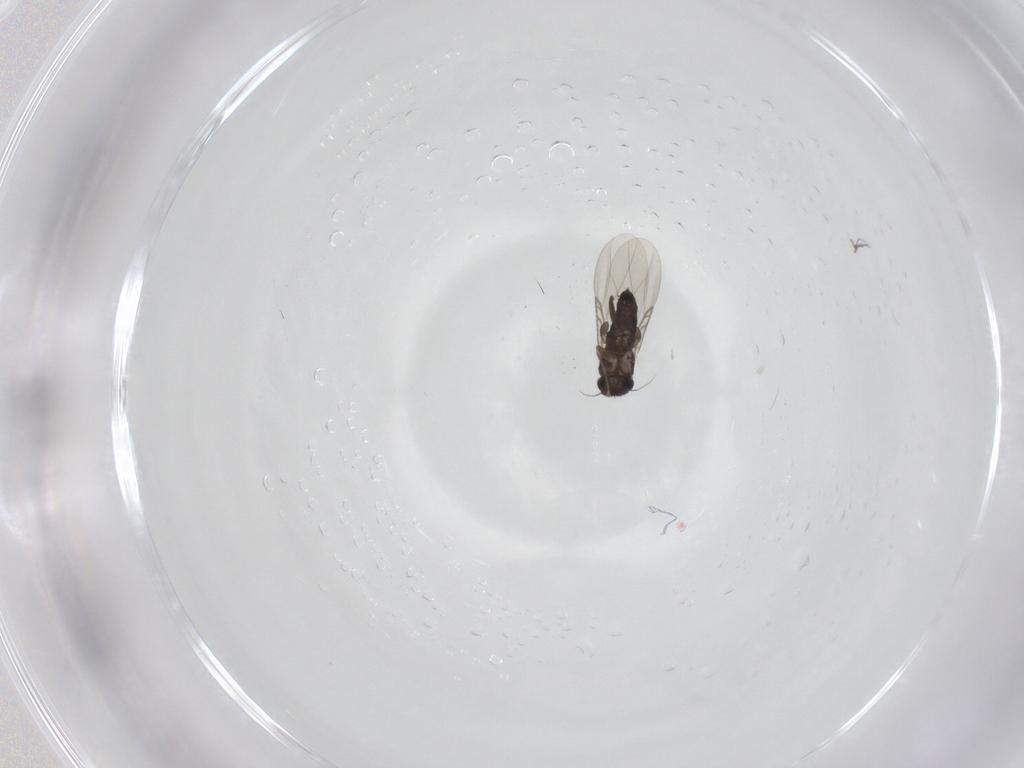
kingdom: Animalia
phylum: Arthropoda
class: Insecta
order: Diptera
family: Phoridae
